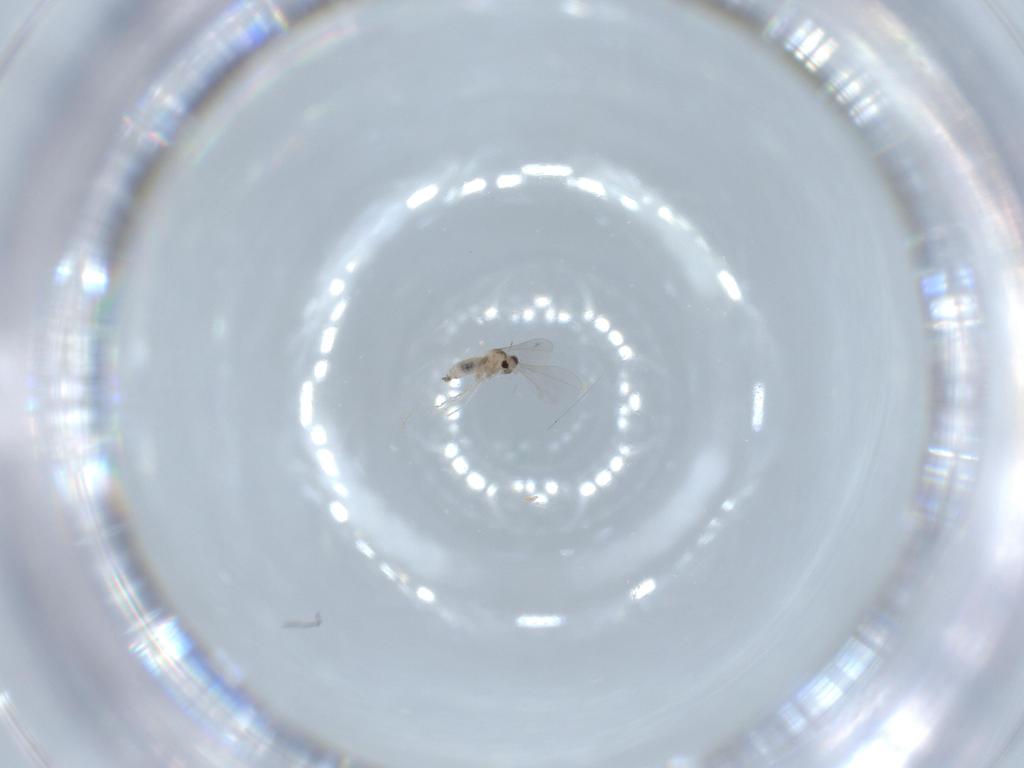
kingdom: Animalia
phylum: Arthropoda
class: Insecta
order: Diptera
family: Cecidomyiidae
